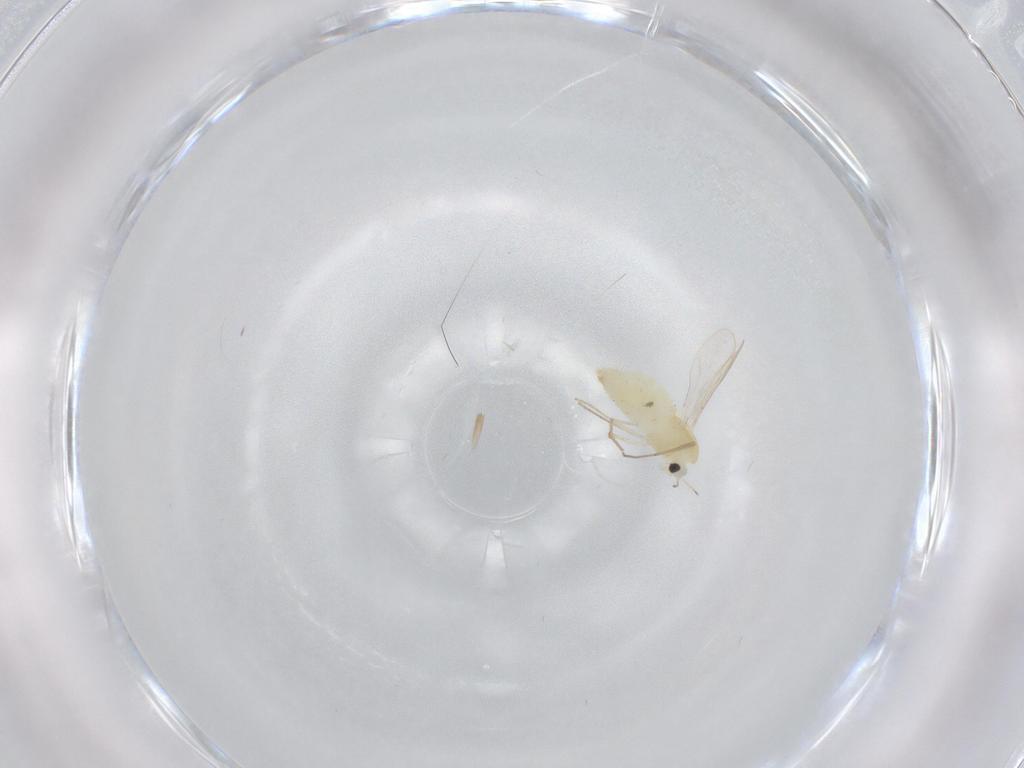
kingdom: Animalia
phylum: Arthropoda
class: Insecta
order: Diptera
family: Chironomidae
